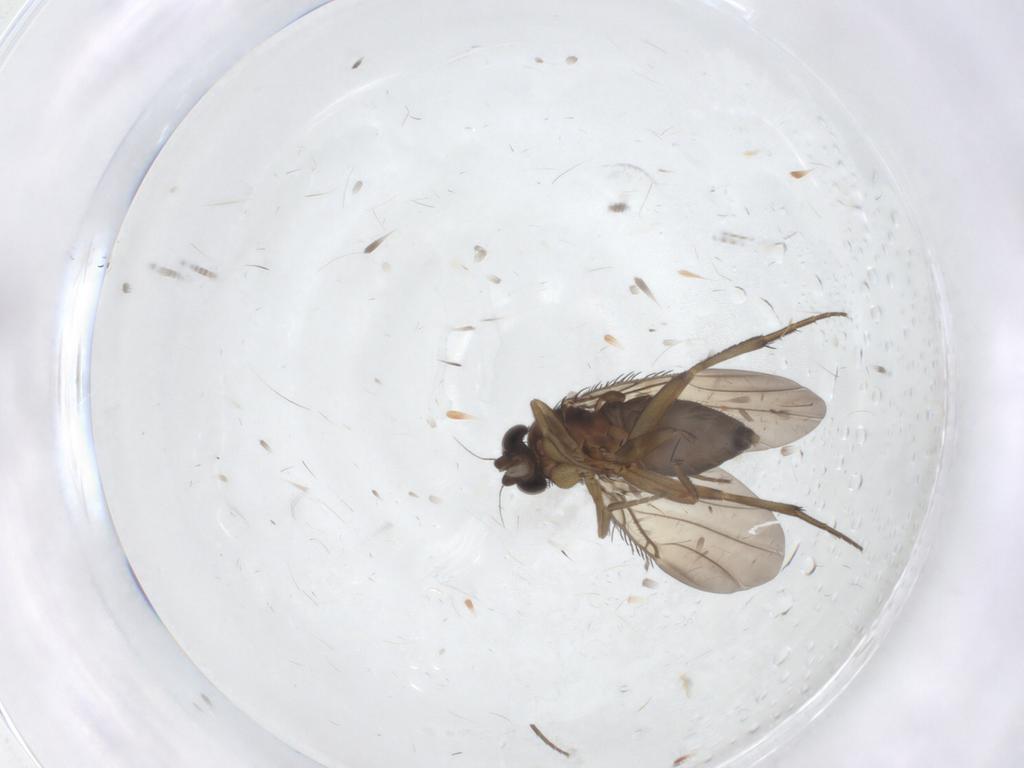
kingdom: Animalia
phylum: Arthropoda
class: Insecta
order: Diptera
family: Phoridae
